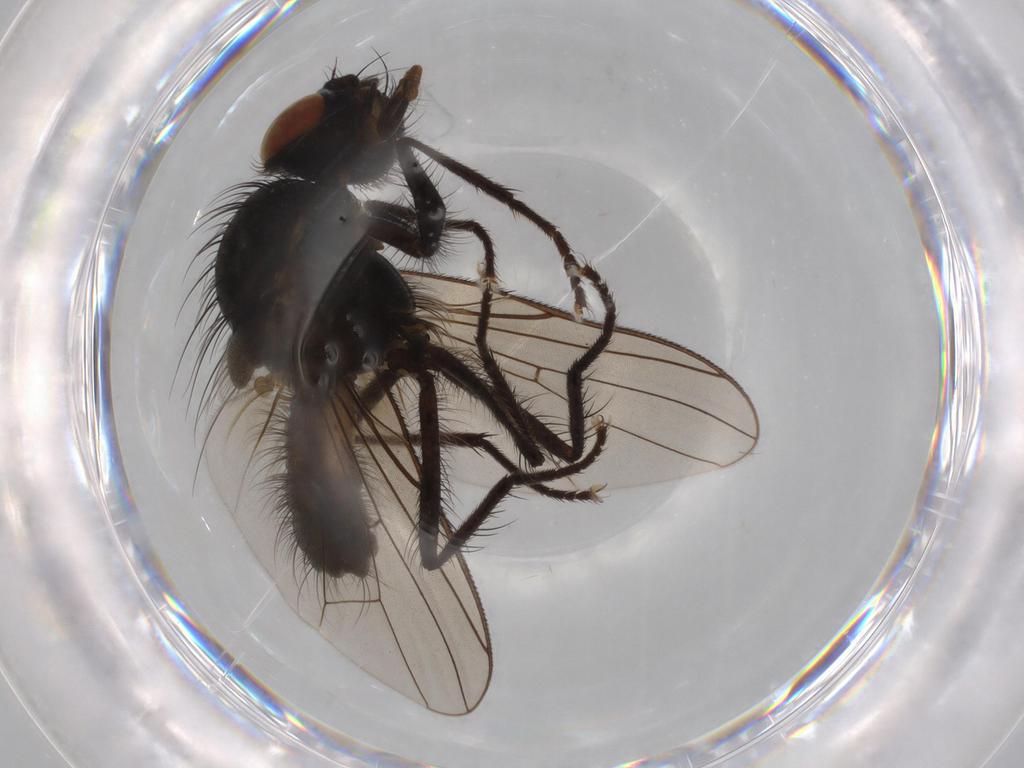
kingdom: Animalia
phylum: Arthropoda
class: Insecta
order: Diptera
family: Anthomyiidae
